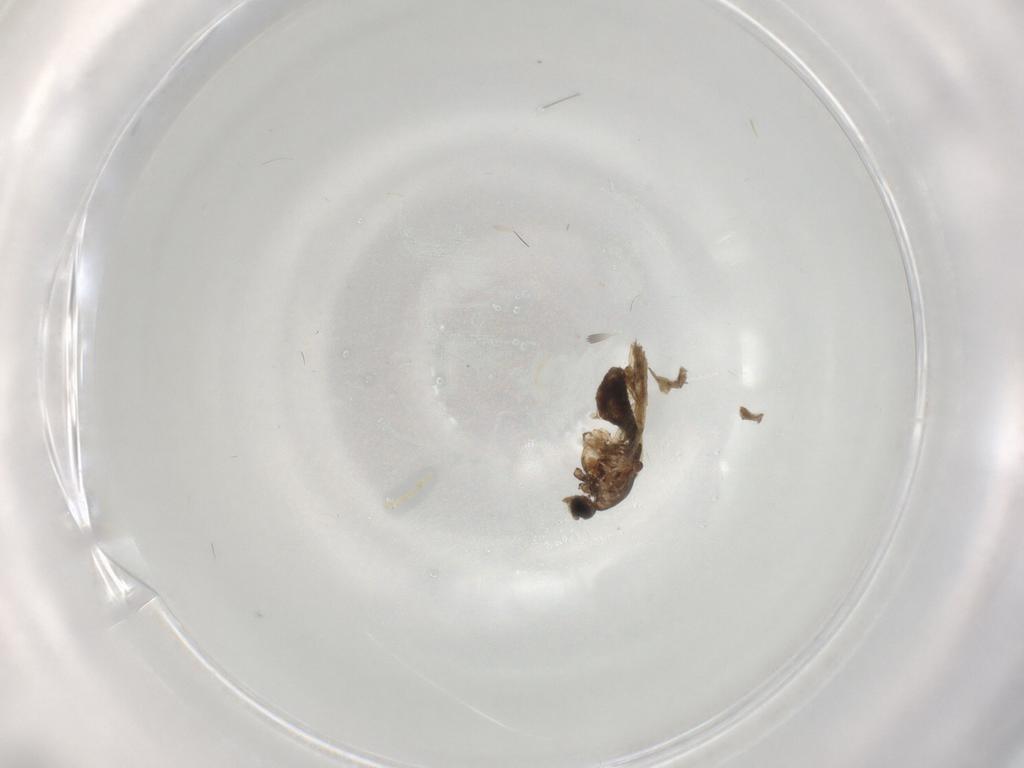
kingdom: Animalia
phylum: Arthropoda
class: Insecta
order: Diptera
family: Chironomidae
